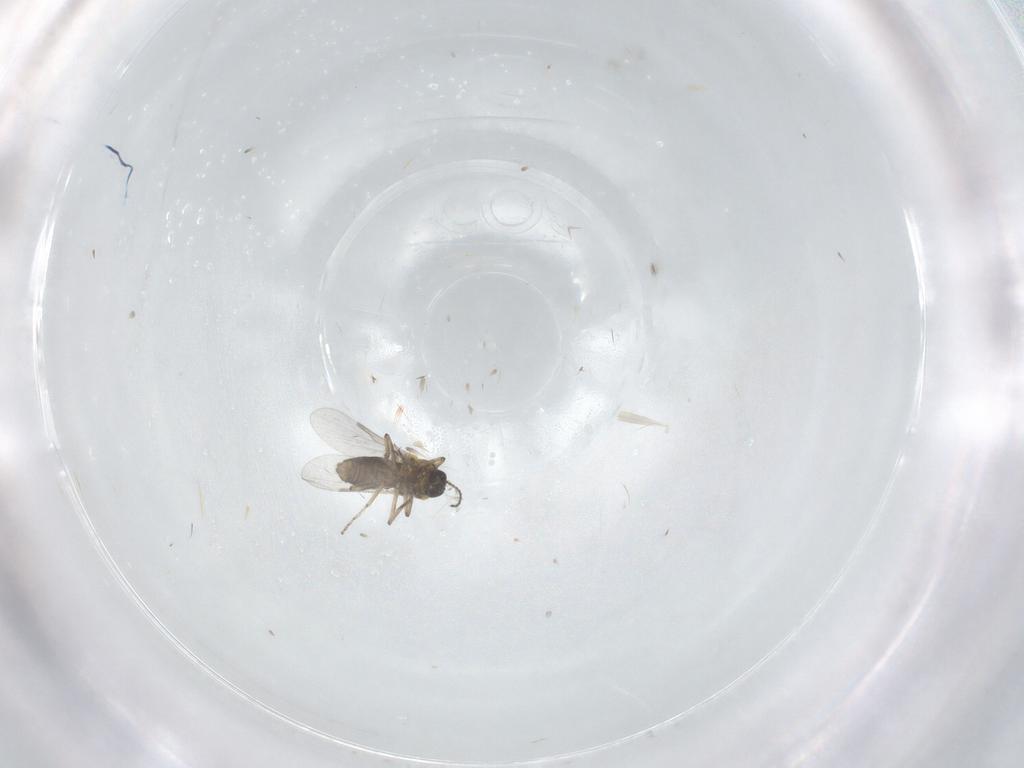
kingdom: Animalia
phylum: Arthropoda
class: Insecta
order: Diptera
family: Ceratopogonidae
